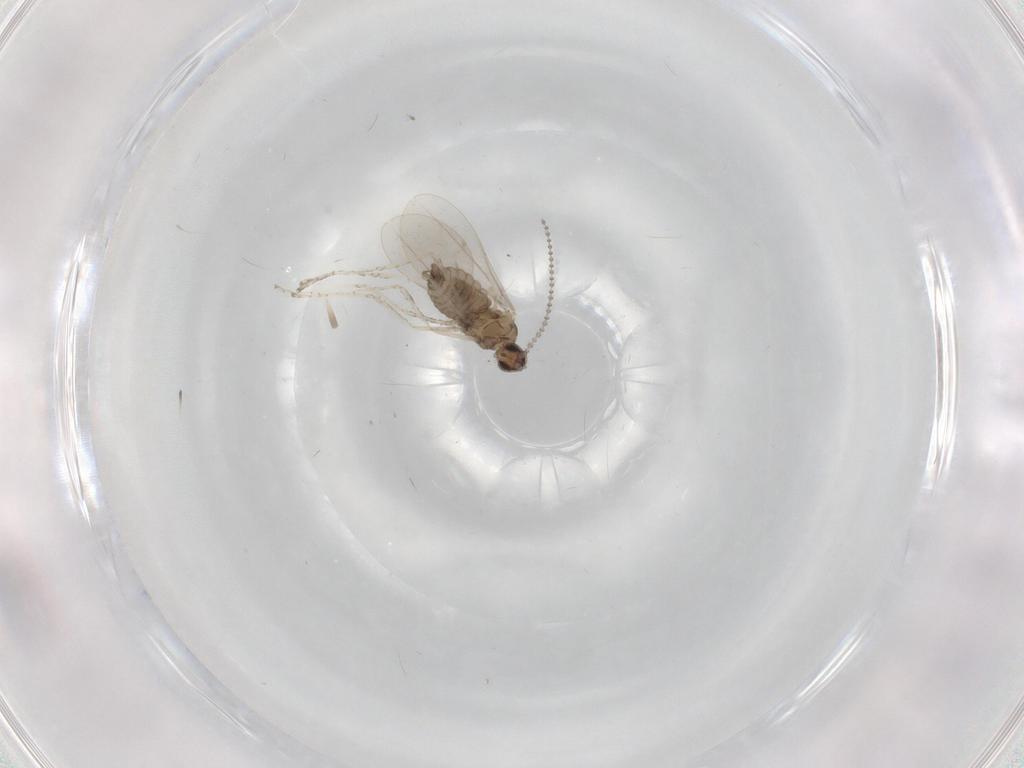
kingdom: Animalia
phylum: Arthropoda
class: Insecta
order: Diptera
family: Cecidomyiidae
